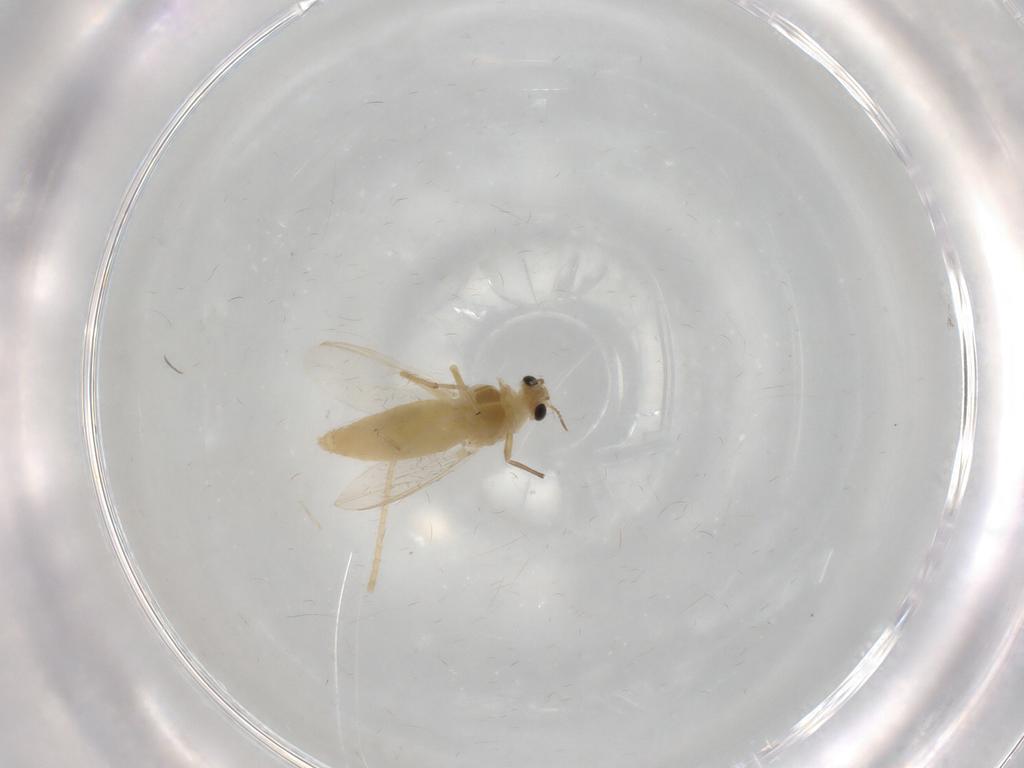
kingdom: Animalia
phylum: Arthropoda
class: Insecta
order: Diptera
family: Chironomidae
